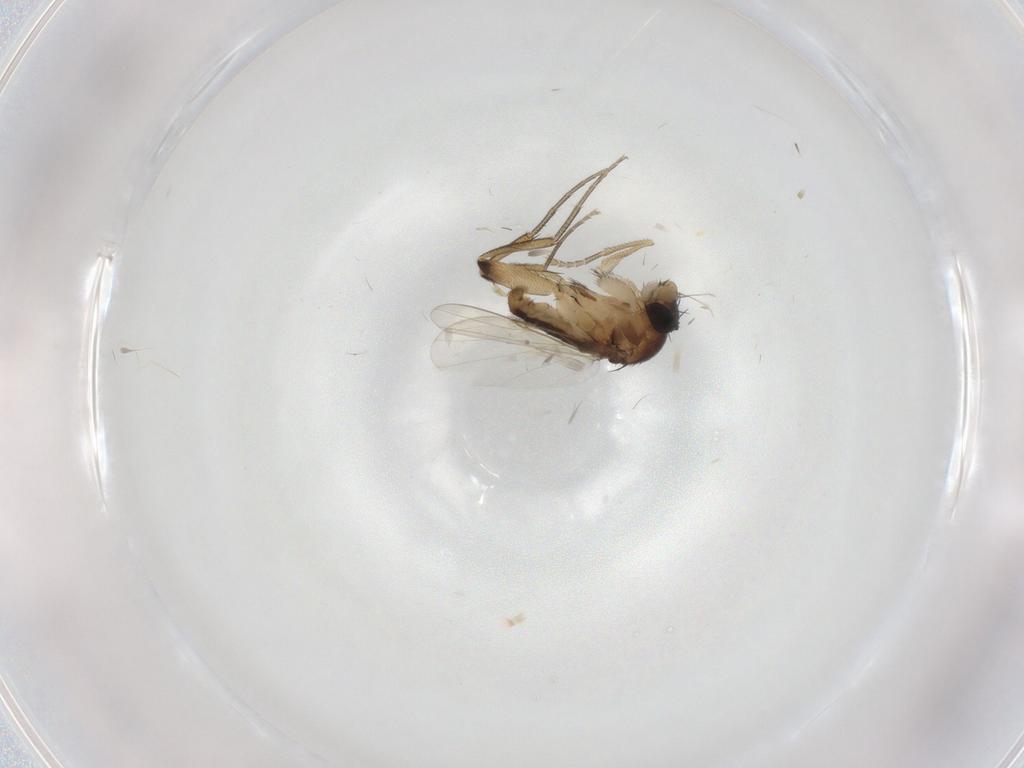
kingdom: Animalia
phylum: Arthropoda
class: Insecta
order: Diptera
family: Phoridae
